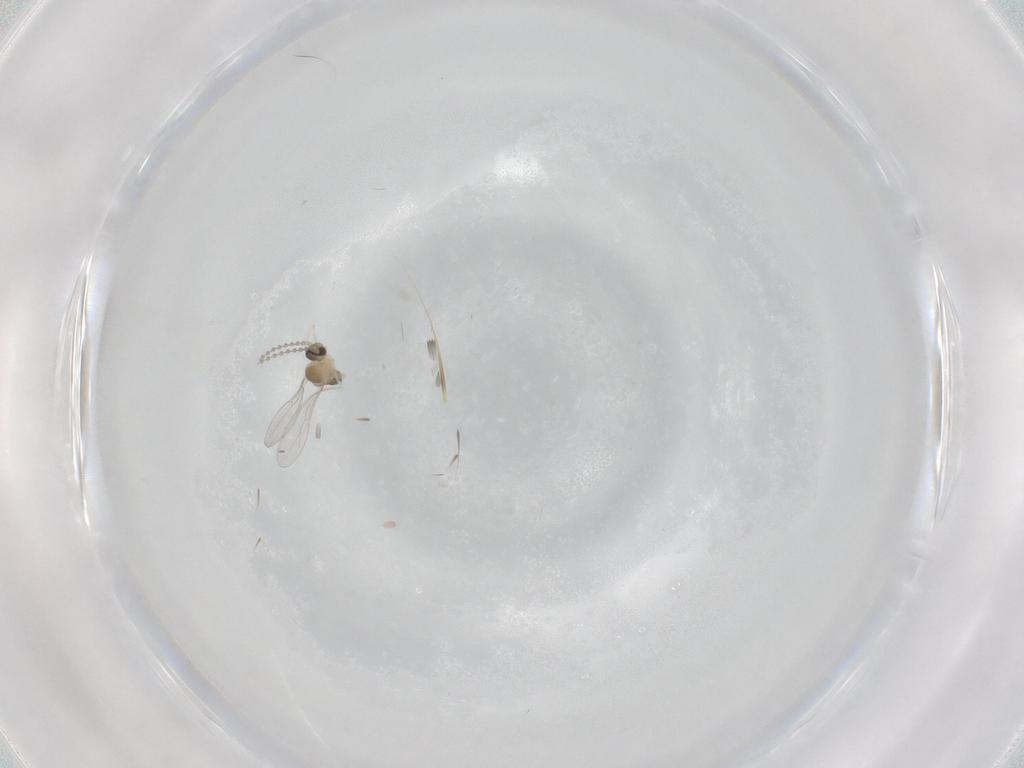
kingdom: Animalia
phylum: Arthropoda
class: Insecta
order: Diptera
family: Cecidomyiidae
